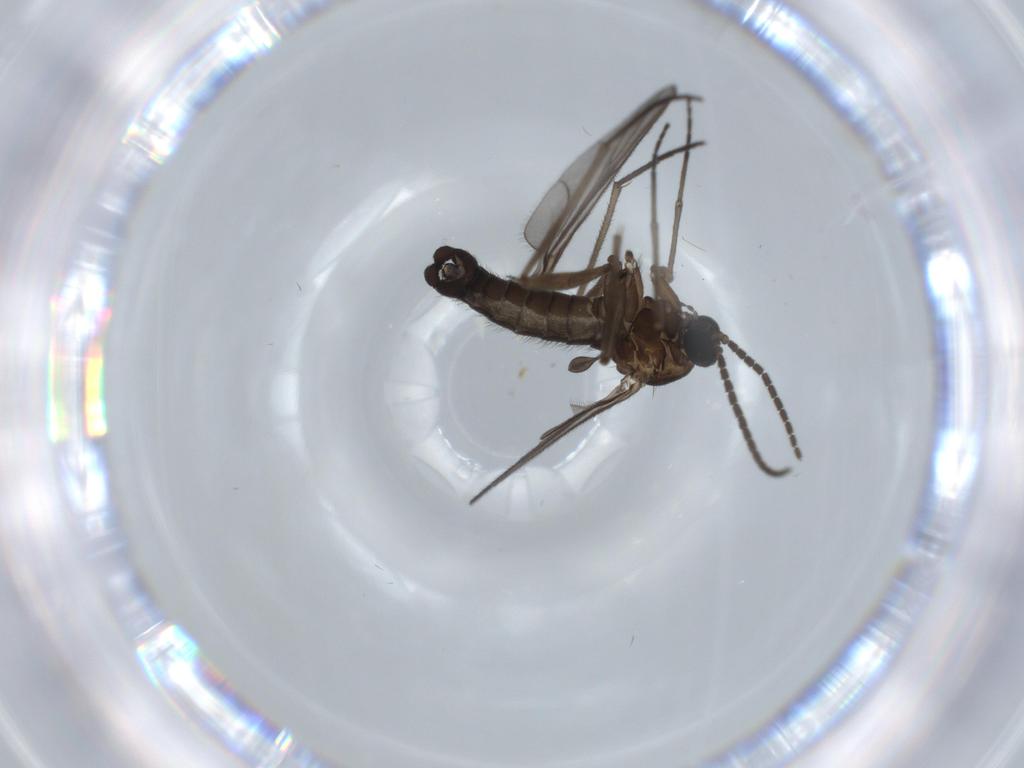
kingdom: Animalia
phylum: Arthropoda
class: Insecta
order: Diptera
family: Sciaridae
